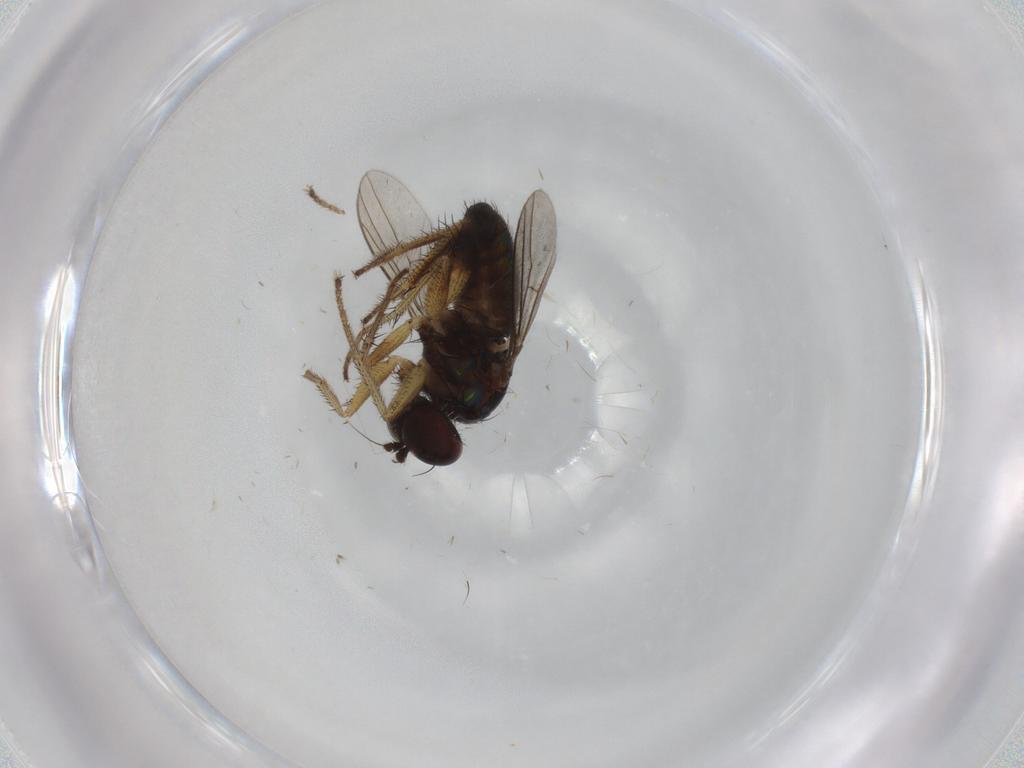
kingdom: Animalia
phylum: Arthropoda
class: Insecta
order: Diptera
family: Dolichopodidae
